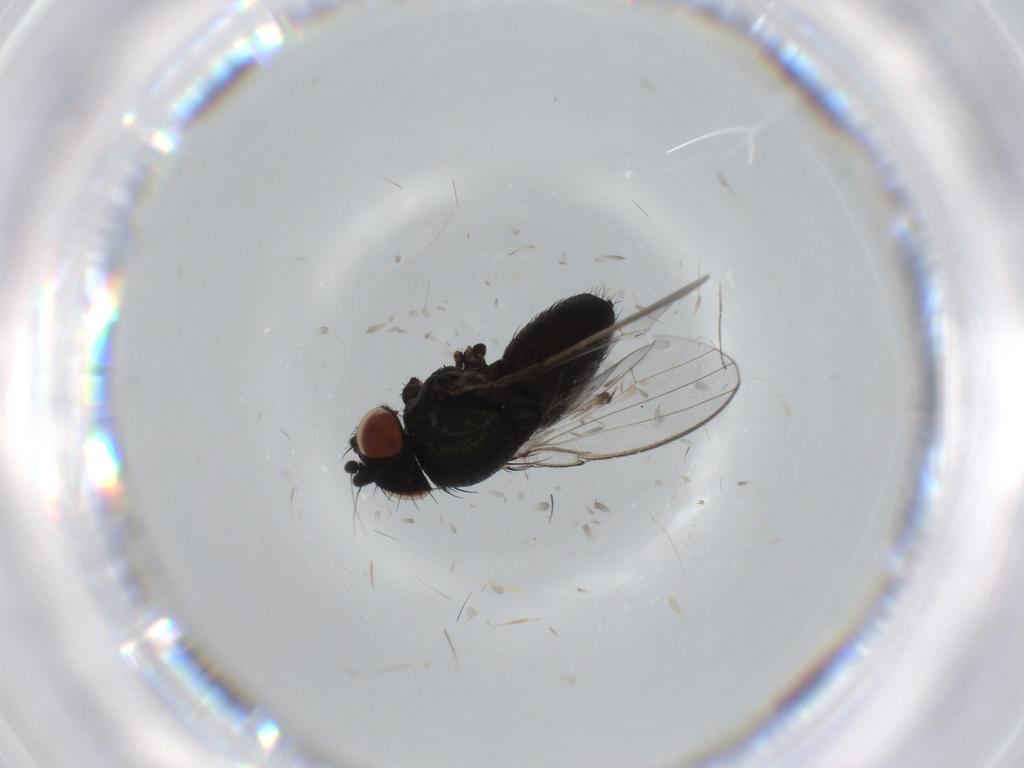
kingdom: Animalia
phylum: Arthropoda
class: Insecta
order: Diptera
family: Milichiidae
